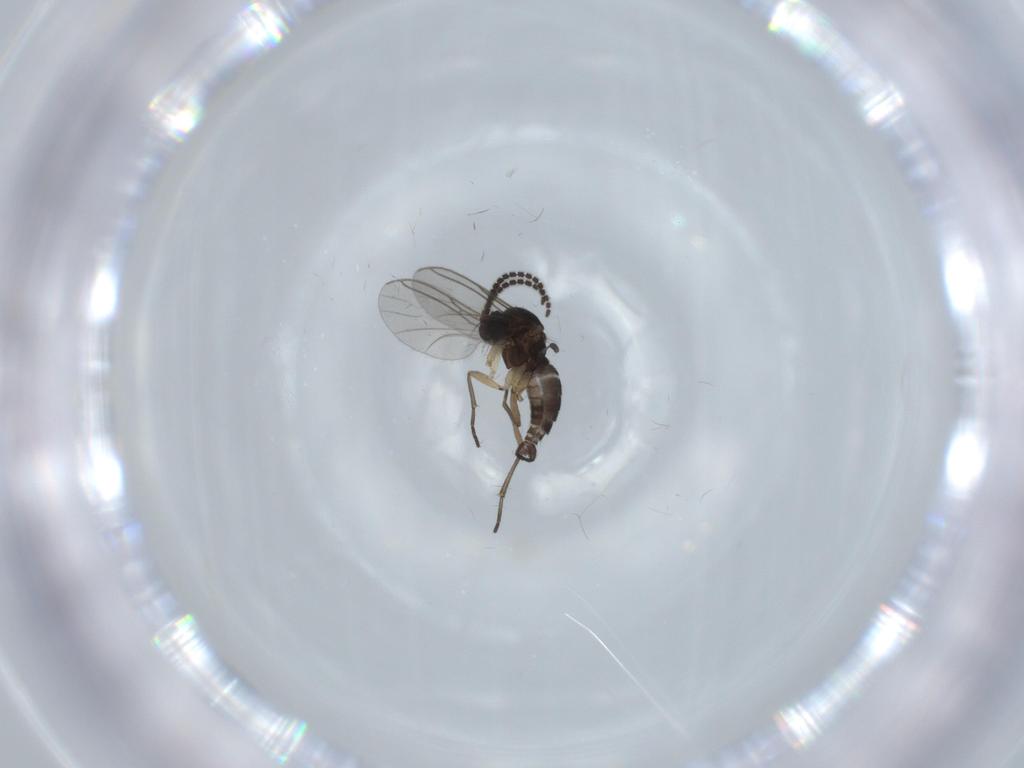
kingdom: Animalia
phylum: Arthropoda
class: Insecta
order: Diptera
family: Sciaridae
